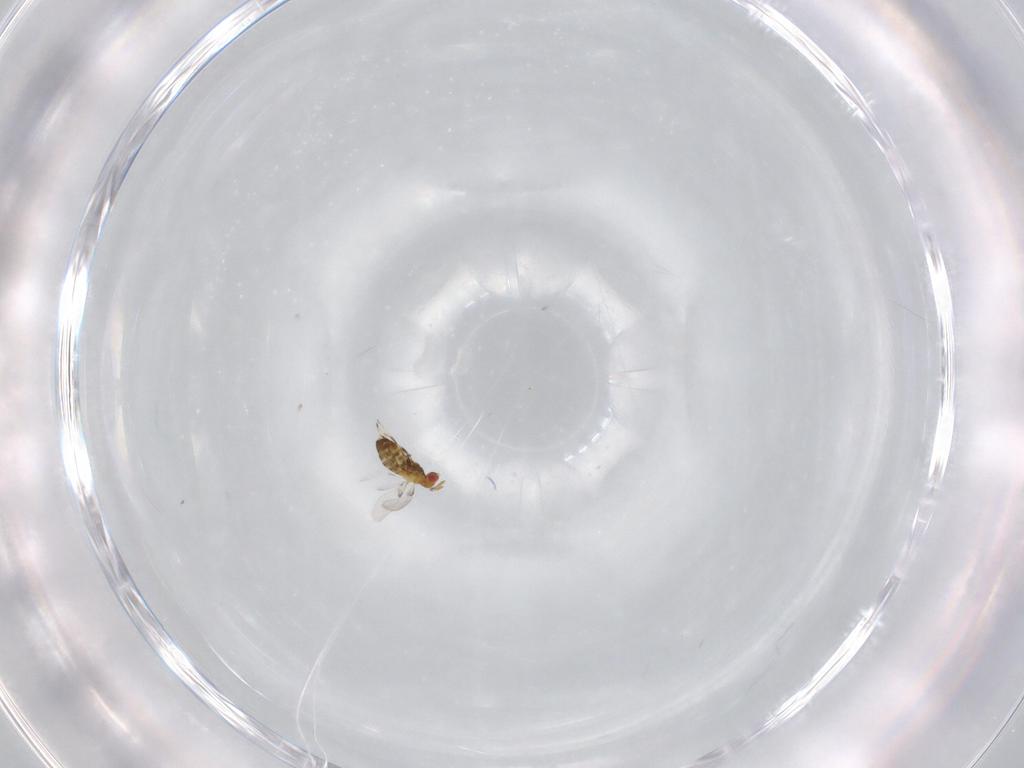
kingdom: Animalia
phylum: Arthropoda
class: Insecta
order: Hymenoptera
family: Trichogrammatidae
